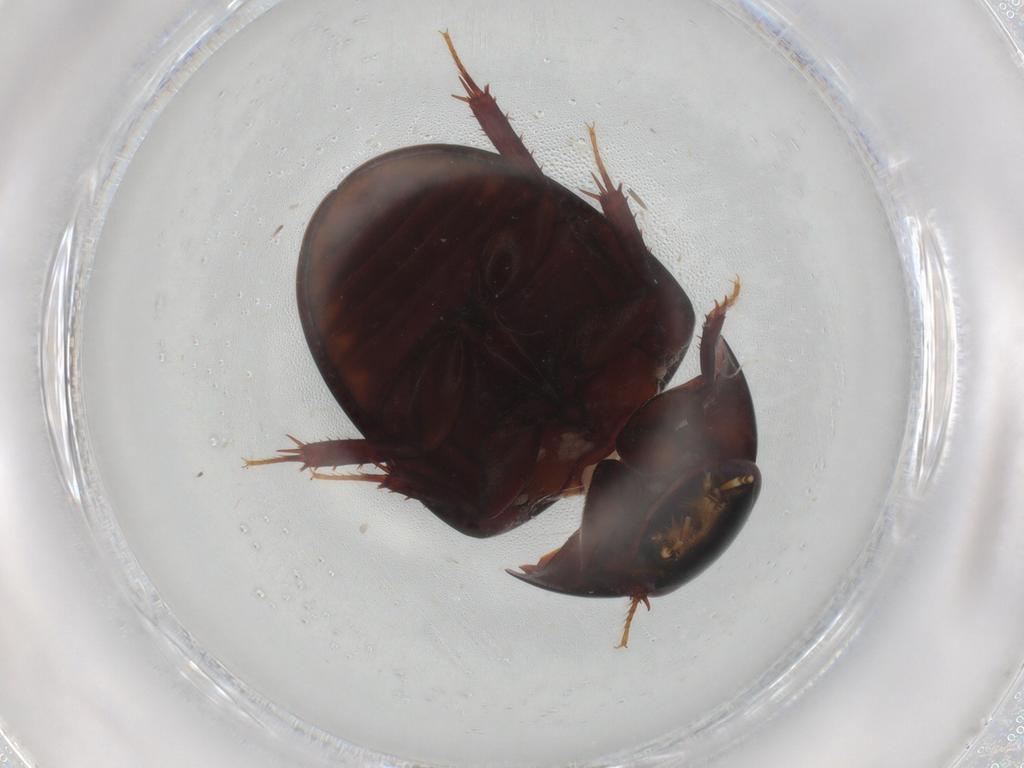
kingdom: Animalia
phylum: Arthropoda
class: Insecta
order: Coleoptera
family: Hydrophilidae
